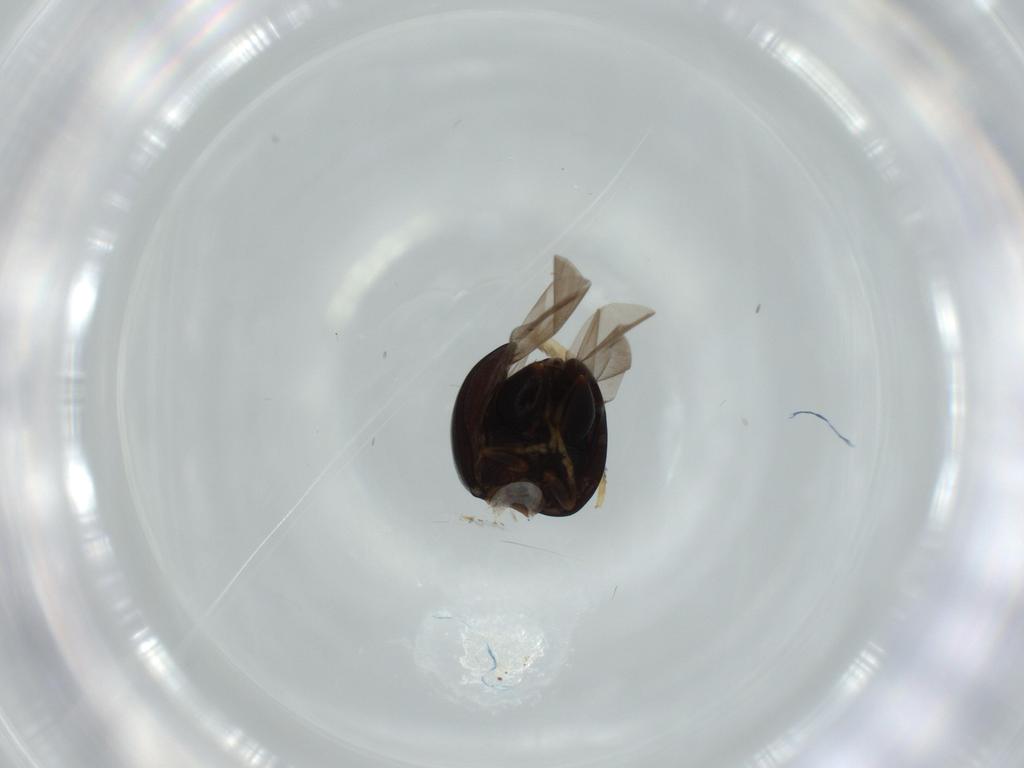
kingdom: Animalia
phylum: Arthropoda
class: Insecta
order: Coleoptera
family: Chrysomelidae
